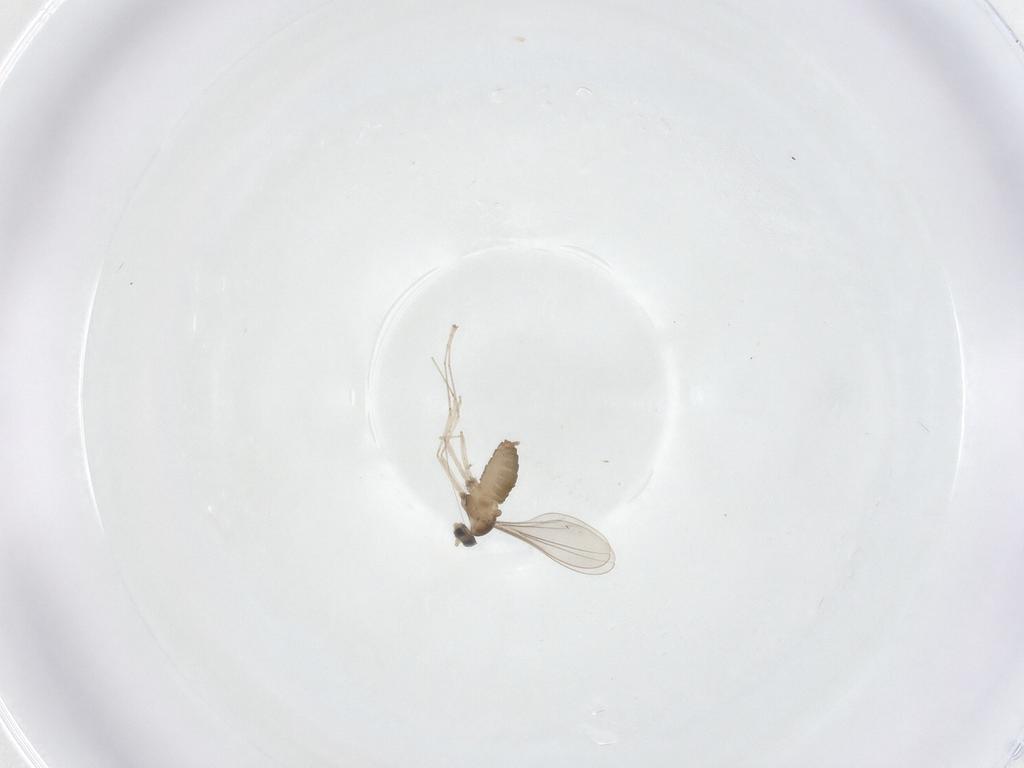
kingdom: Animalia
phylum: Arthropoda
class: Insecta
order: Diptera
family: Cecidomyiidae
